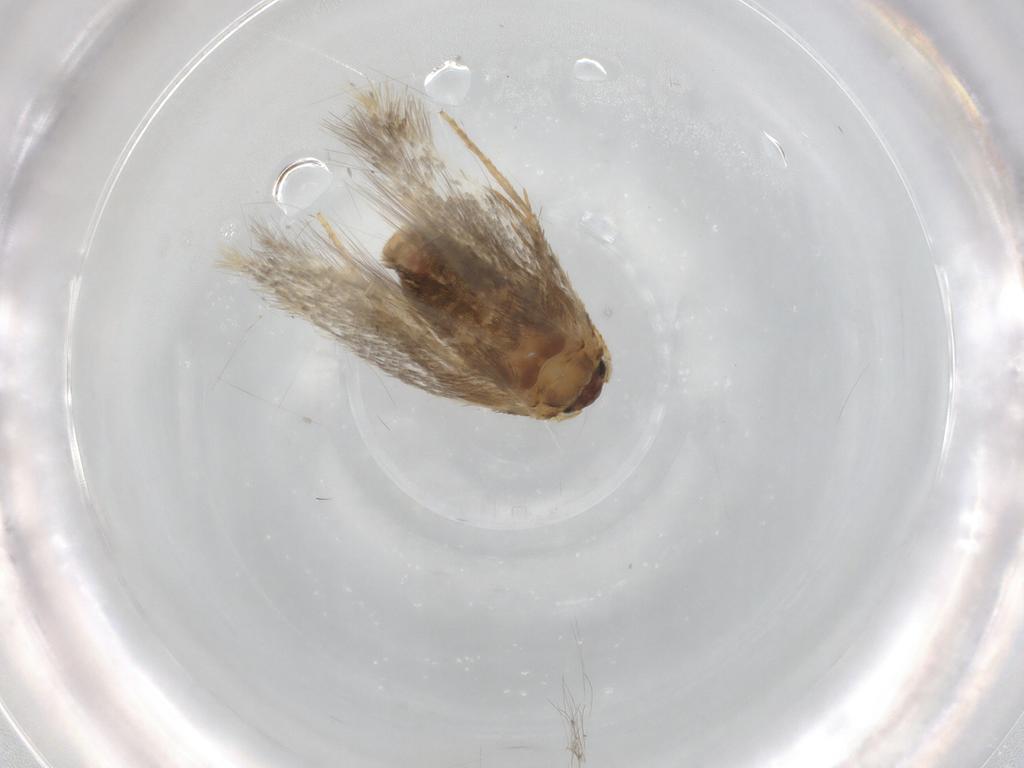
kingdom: Animalia
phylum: Arthropoda
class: Insecta
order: Lepidoptera
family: Nepticulidae
